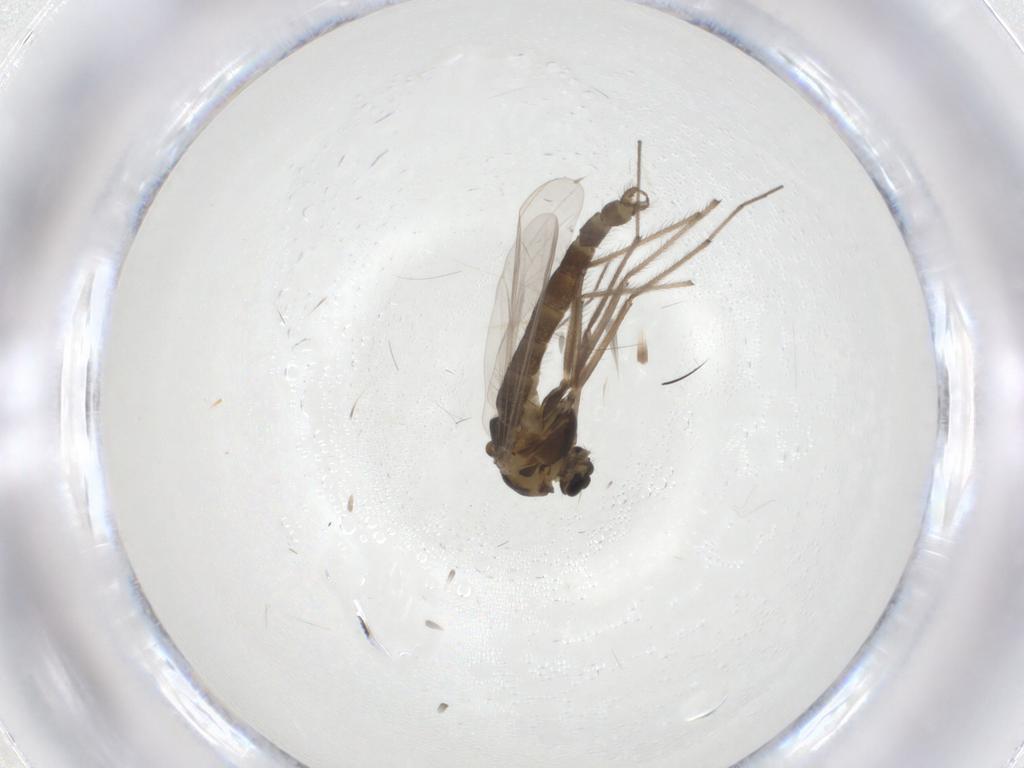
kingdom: Animalia
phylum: Arthropoda
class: Insecta
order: Diptera
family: Chironomidae
